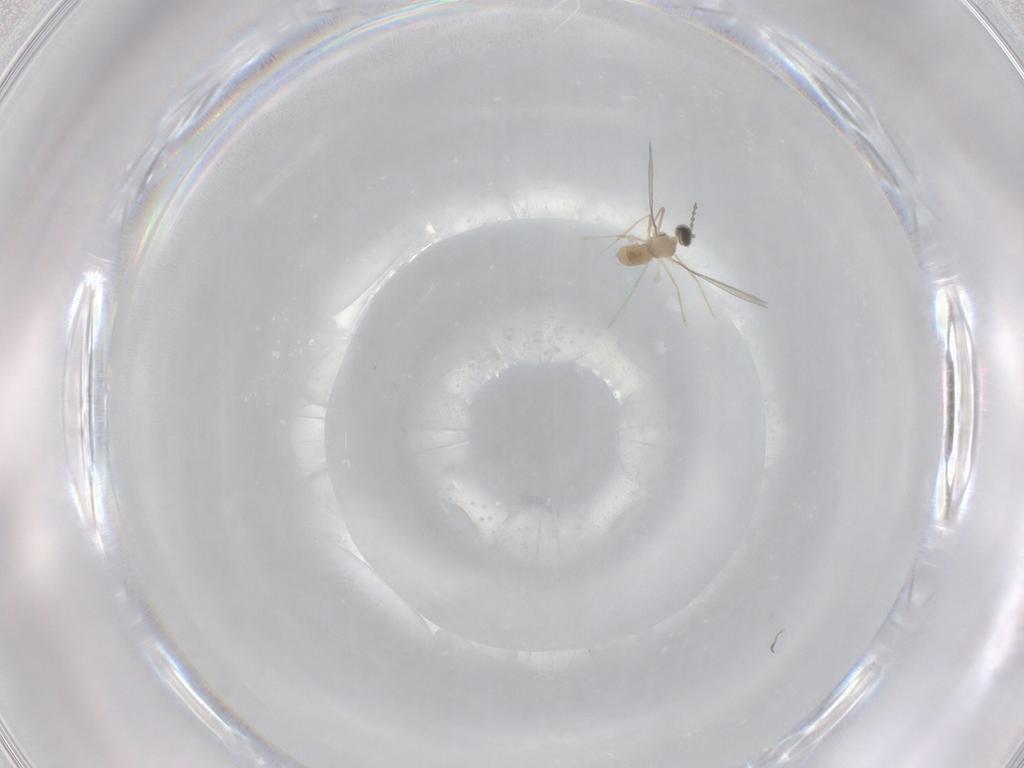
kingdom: Animalia
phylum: Arthropoda
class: Insecta
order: Diptera
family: Cecidomyiidae
